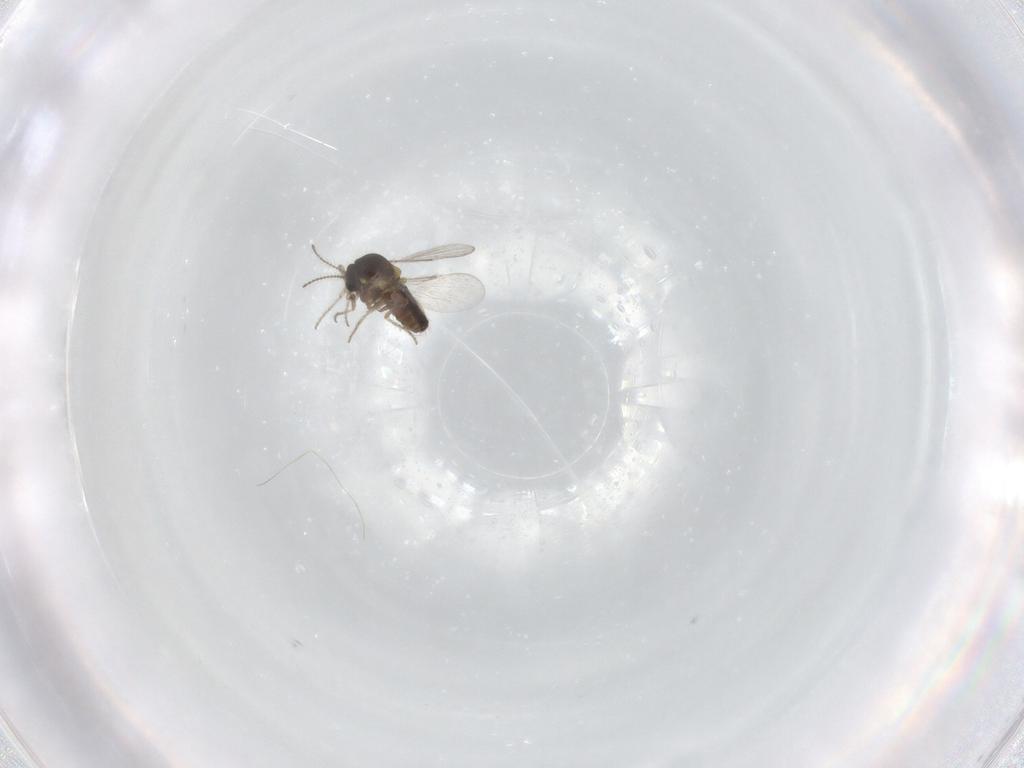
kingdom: Animalia
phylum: Arthropoda
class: Insecta
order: Diptera
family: Ceratopogonidae
